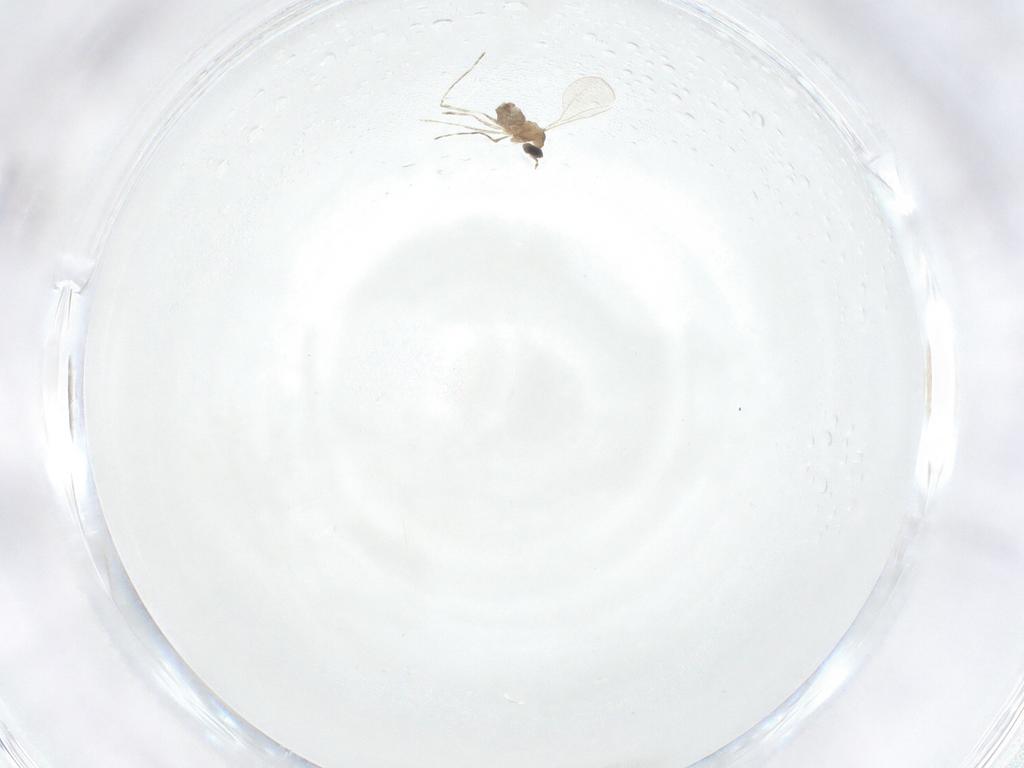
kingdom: Animalia
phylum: Arthropoda
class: Insecta
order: Diptera
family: Cecidomyiidae
